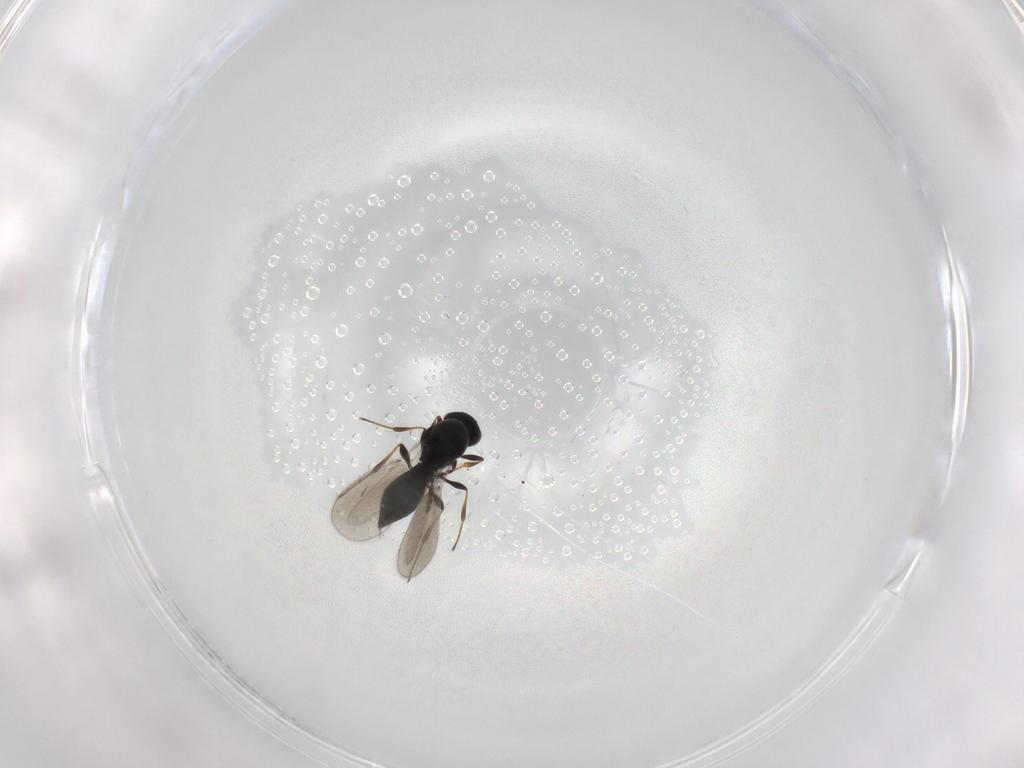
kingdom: Animalia
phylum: Arthropoda
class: Insecta
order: Hymenoptera
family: Platygastridae
